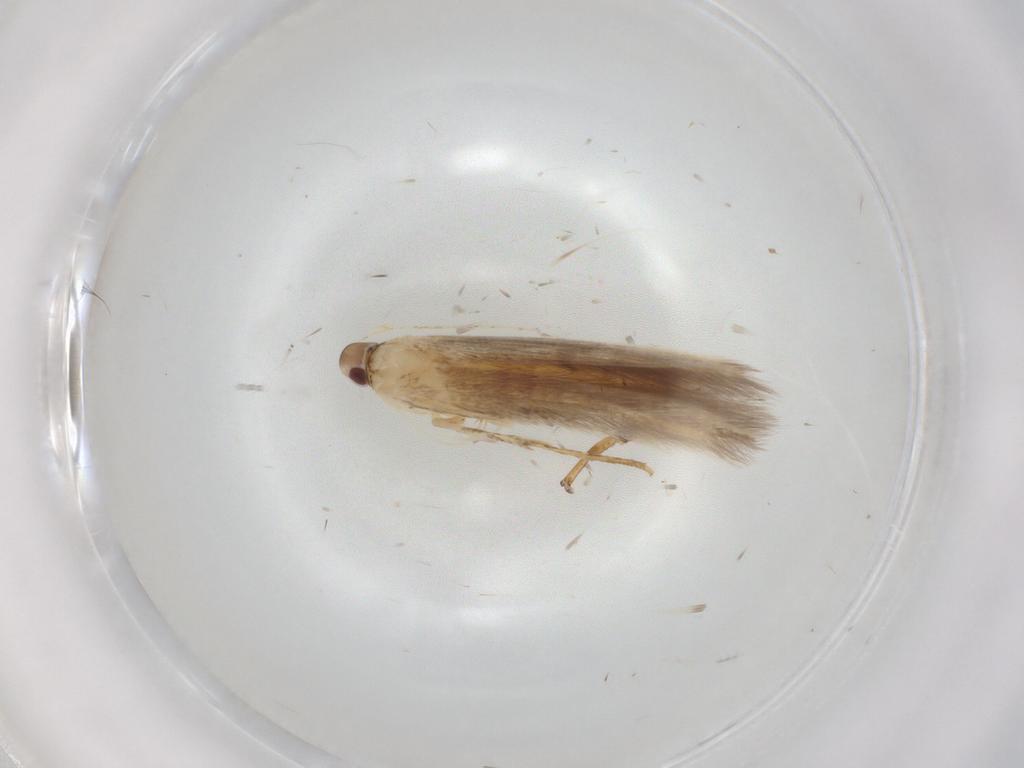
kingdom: Animalia
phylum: Arthropoda
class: Insecta
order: Lepidoptera
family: Cosmopterigidae
